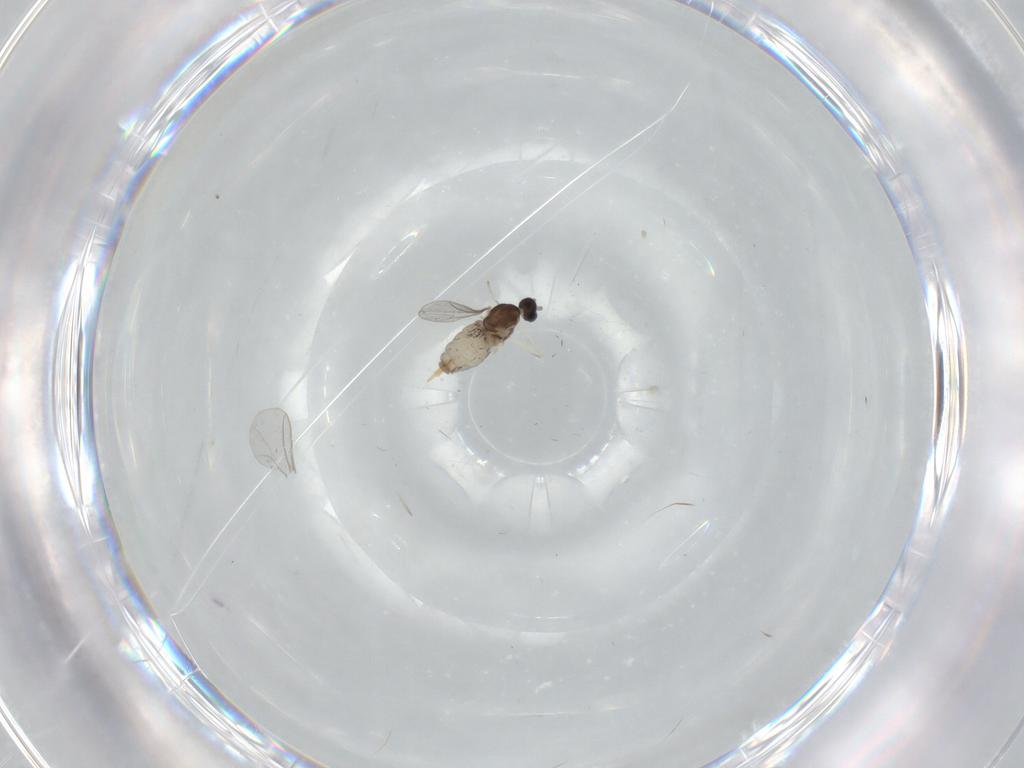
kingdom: Animalia
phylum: Arthropoda
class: Insecta
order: Diptera
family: Cecidomyiidae
